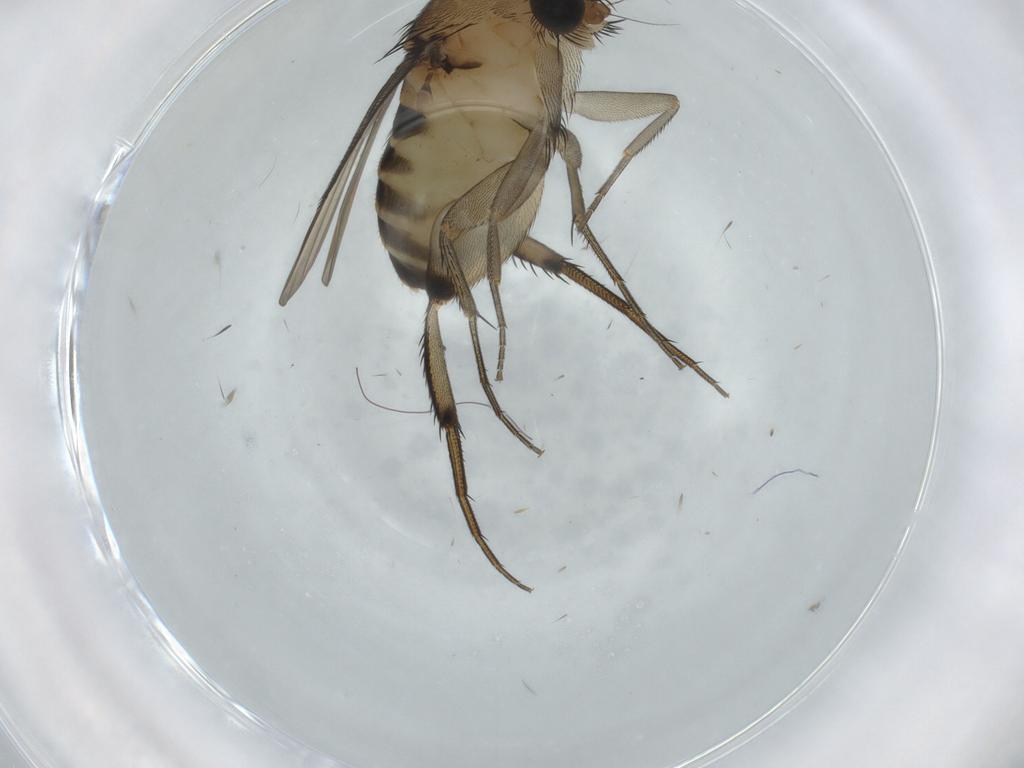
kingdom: Animalia
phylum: Arthropoda
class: Insecta
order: Diptera
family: Phoridae
